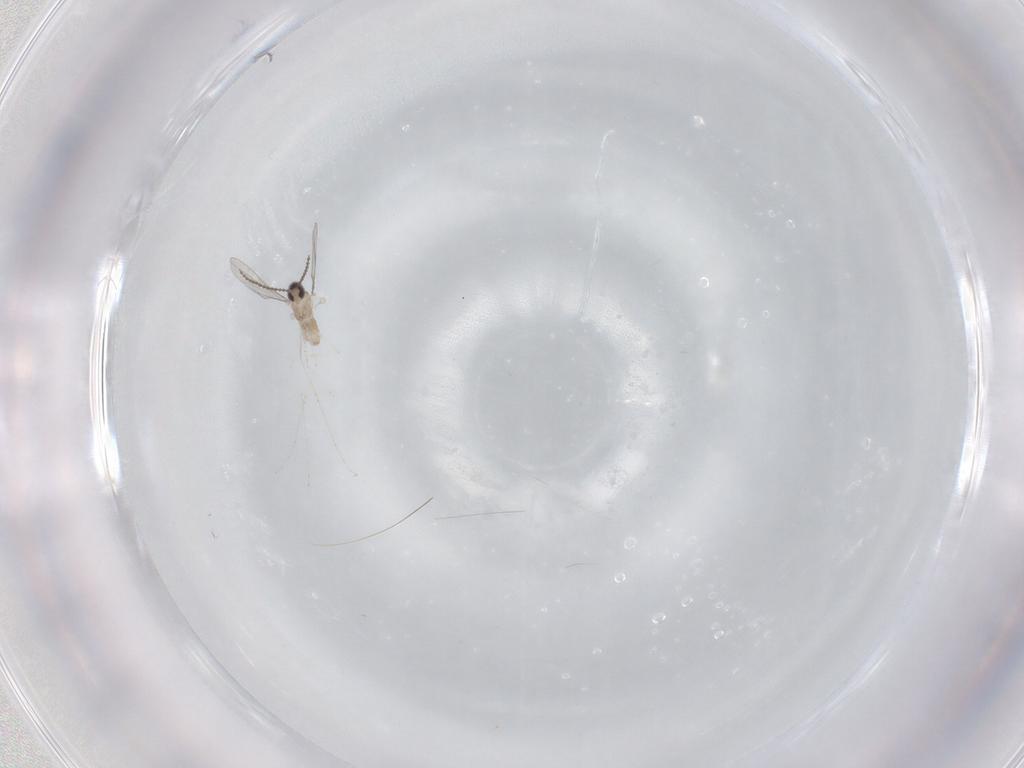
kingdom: Animalia
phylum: Arthropoda
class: Insecta
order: Diptera
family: Cecidomyiidae
